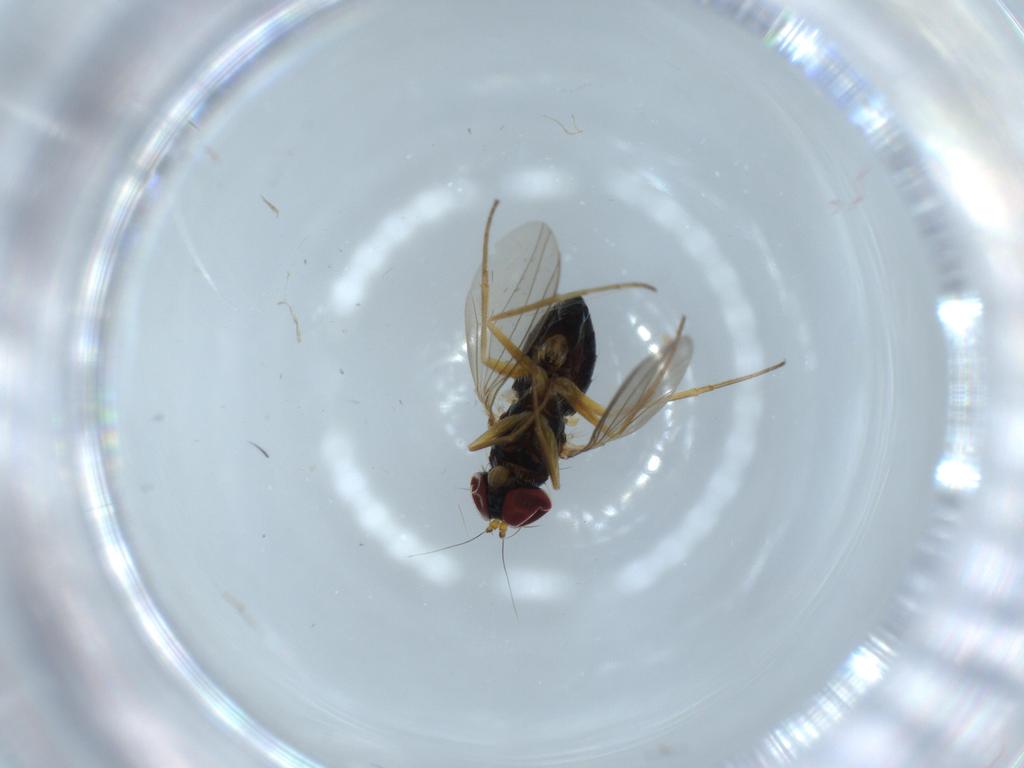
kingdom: Animalia
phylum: Arthropoda
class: Insecta
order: Diptera
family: Dolichopodidae
